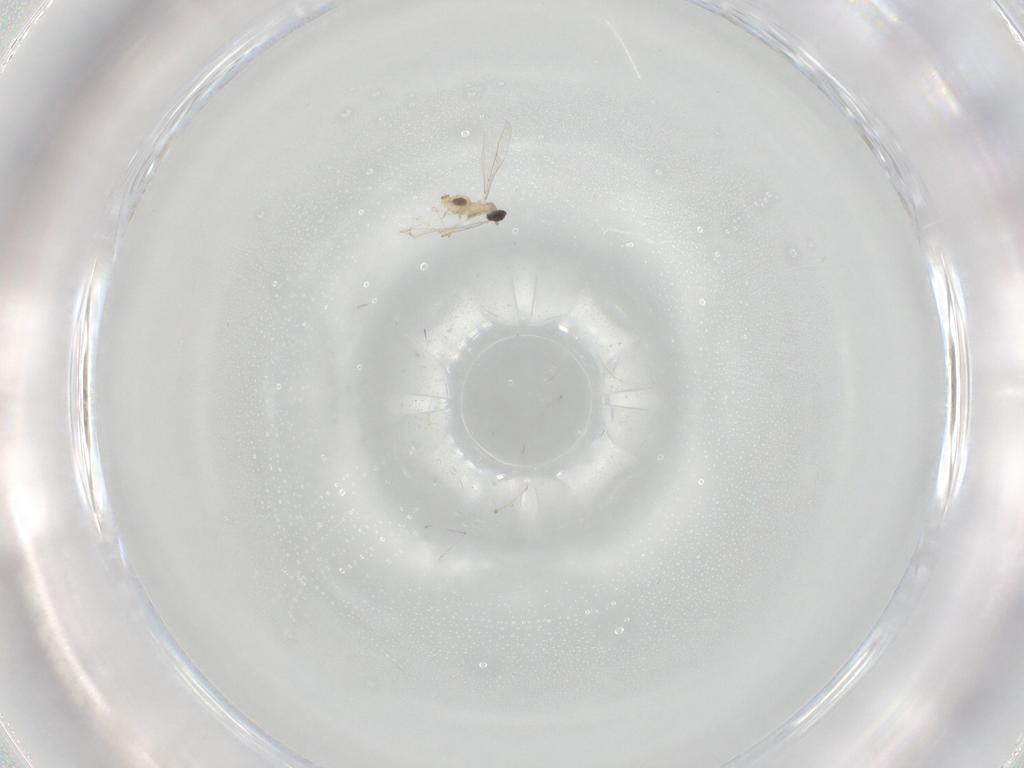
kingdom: Animalia
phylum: Arthropoda
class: Insecta
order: Diptera
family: Cecidomyiidae
